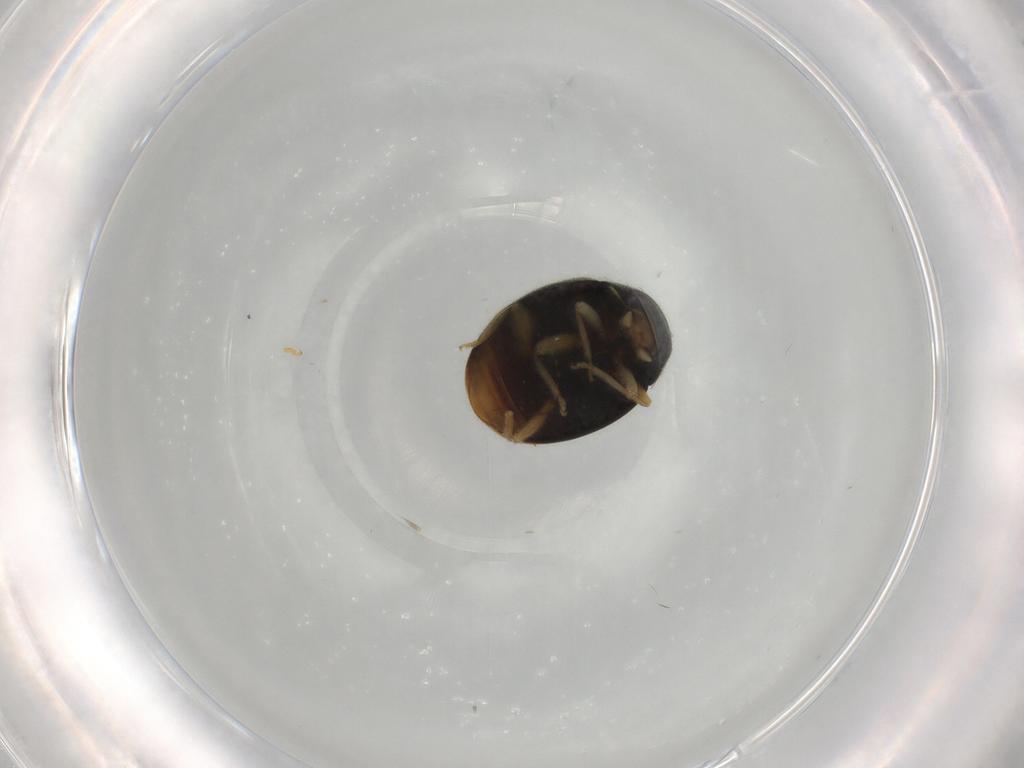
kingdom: Animalia
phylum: Arthropoda
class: Insecta
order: Coleoptera
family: Coccinellidae
